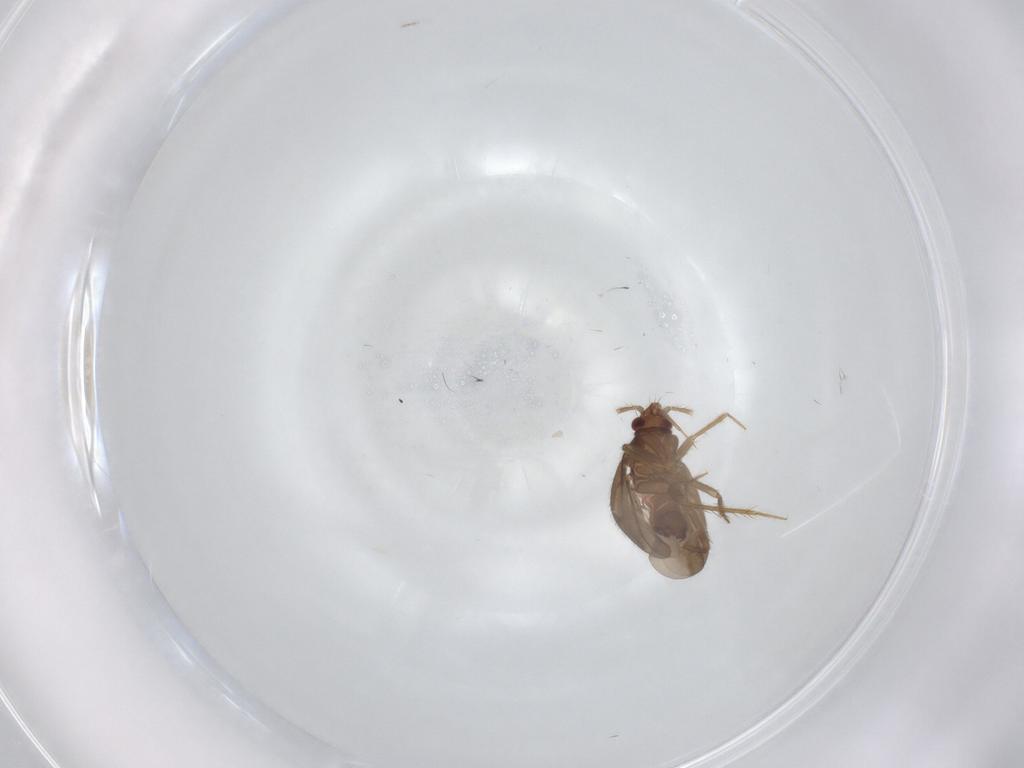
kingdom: Animalia
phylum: Arthropoda
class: Insecta
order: Hemiptera
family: Ceratocombidae
